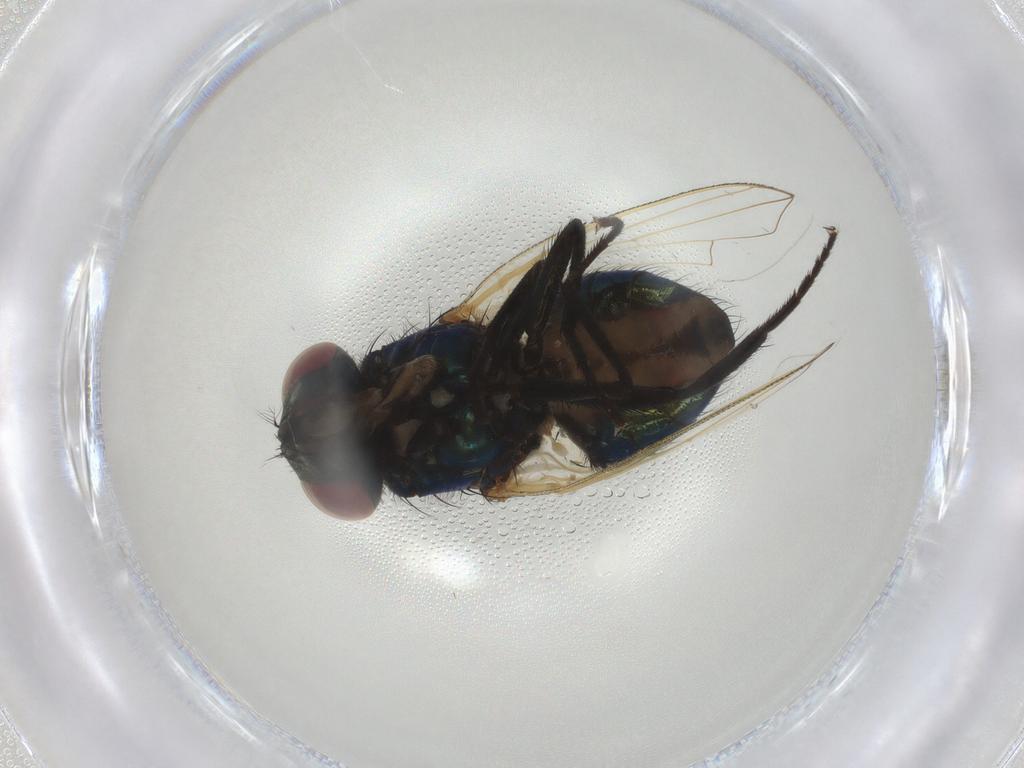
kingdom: Animalia
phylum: Arthropoda
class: Insecta
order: Diptera
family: Muscidae
